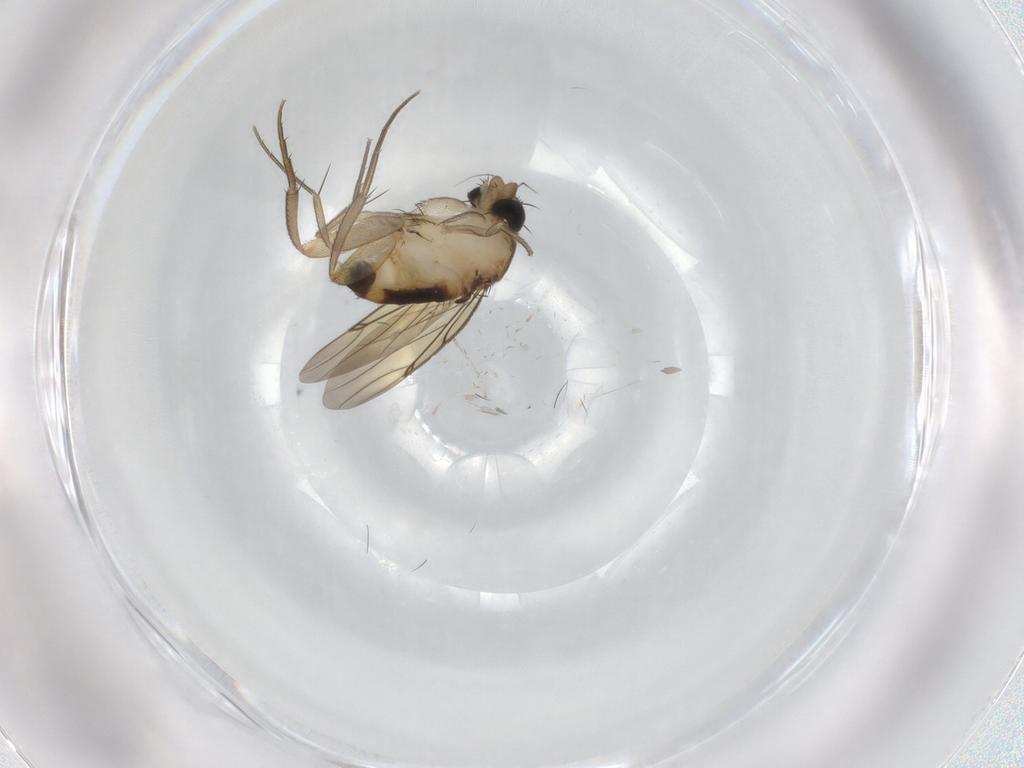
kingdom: Animalia
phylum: Arthropoda
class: Insecta
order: Diptera
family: Tabanidae
